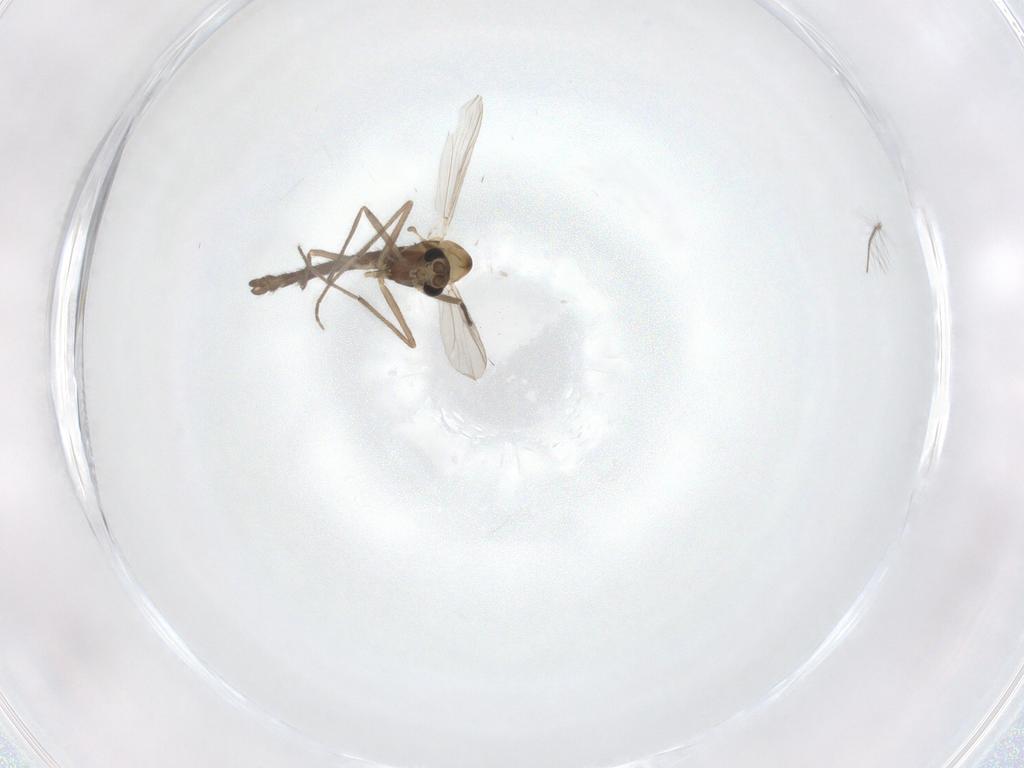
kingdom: Animalia
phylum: Arthropoda
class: Insecta
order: Diptera
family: Chironomidae
